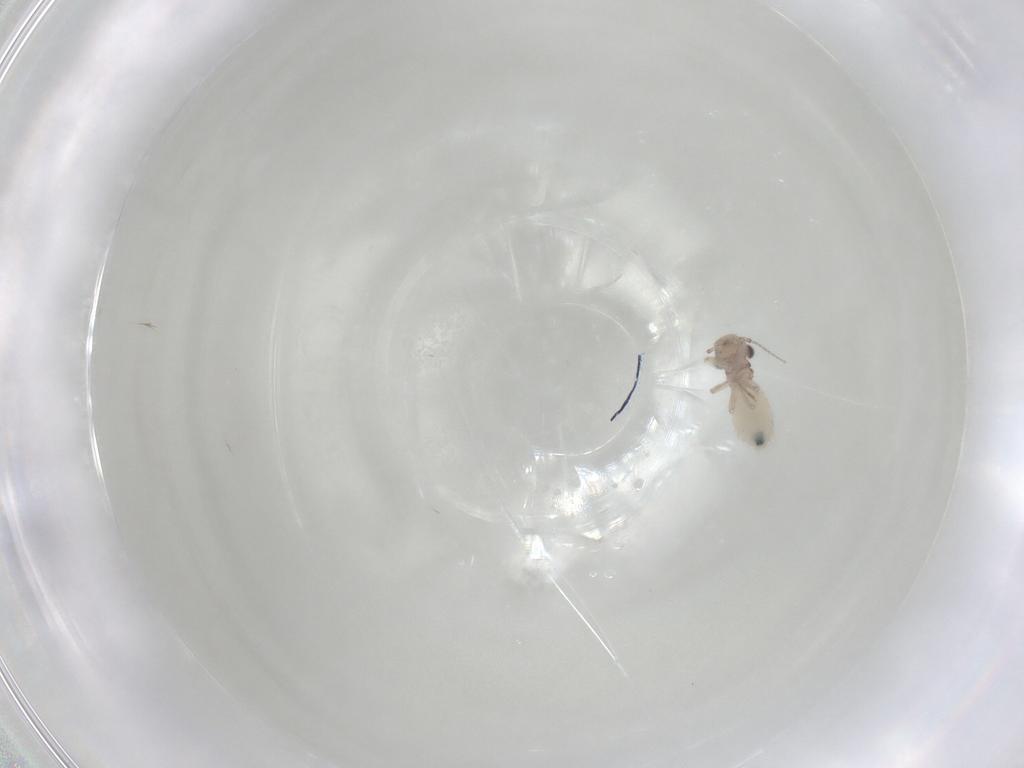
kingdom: Animalia
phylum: Arthropoda
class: Insecta
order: Diptera
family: Chironomidae
